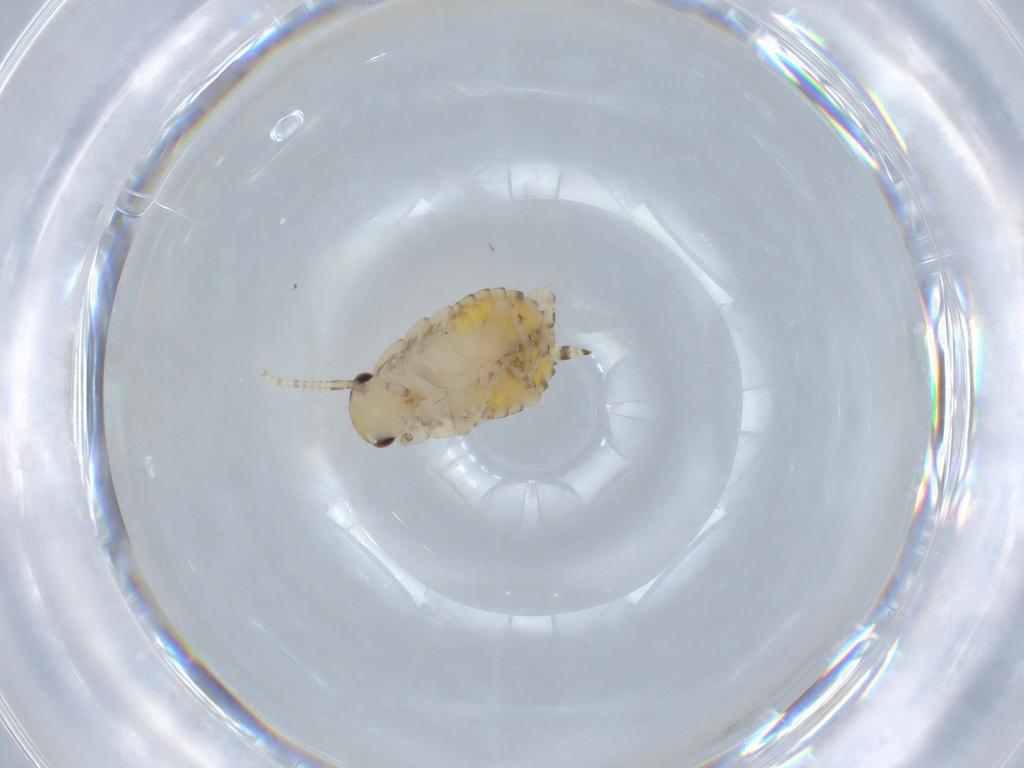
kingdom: Animalia
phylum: Arthropoda
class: Insecta
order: Blattodea
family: Ectobiidae
